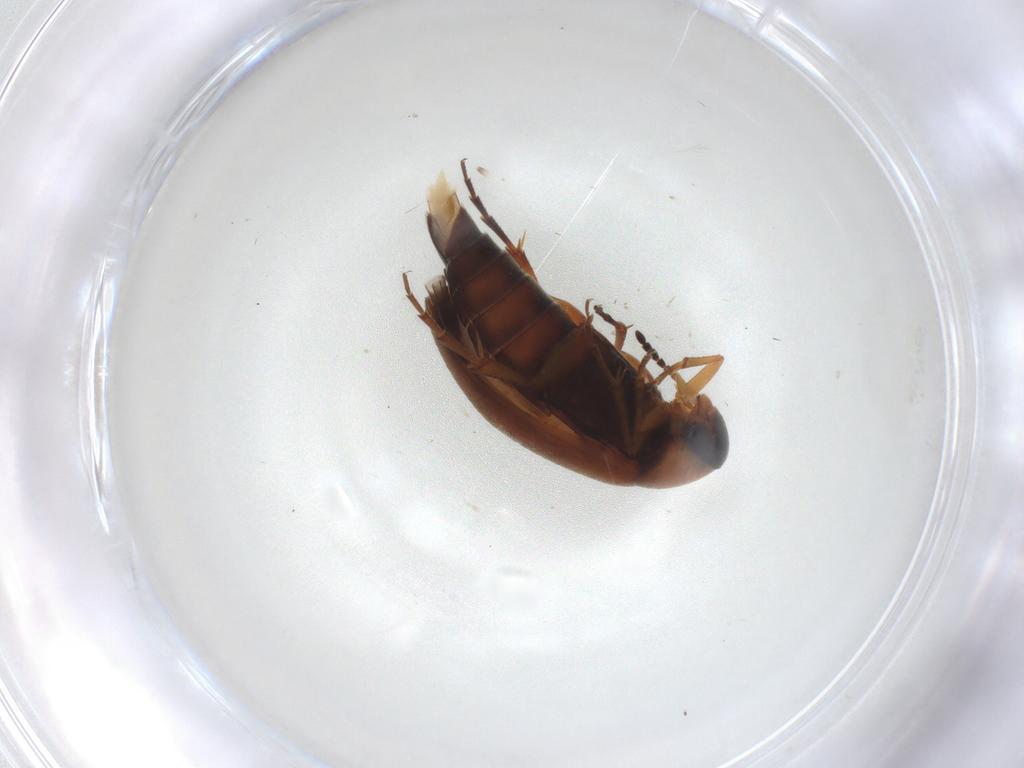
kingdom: Animalia
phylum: Arthropoda
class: Insecta
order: Coleoptera
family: Scraptiidae
